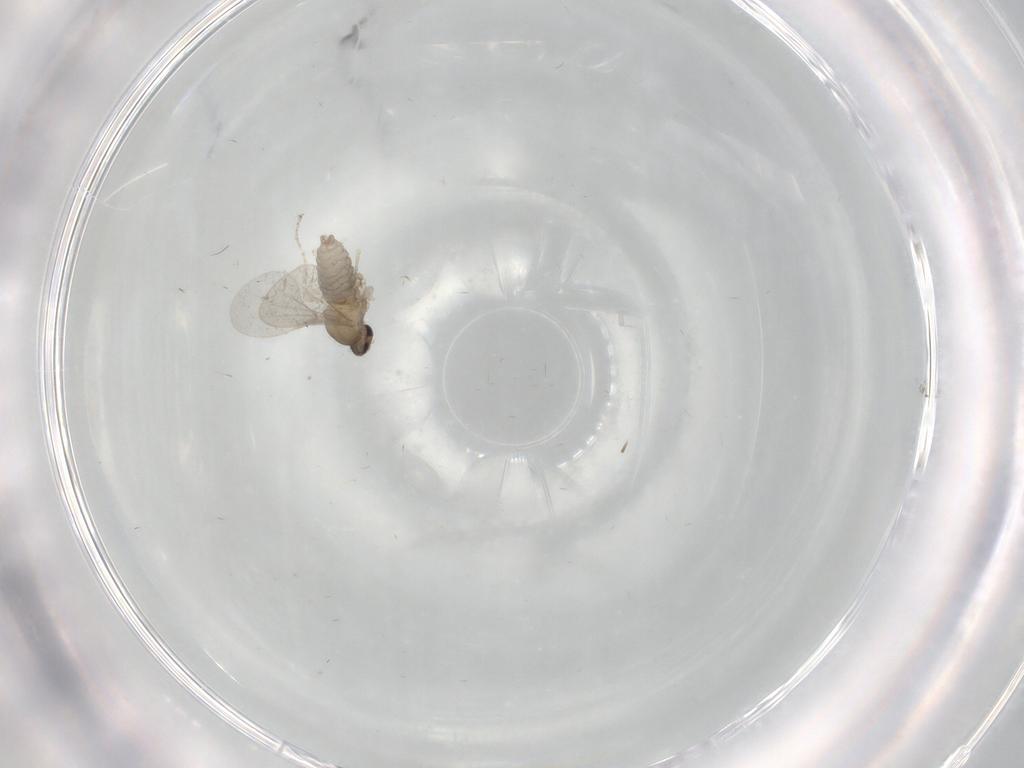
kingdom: Animalia
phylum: Arthropoda
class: Insecta
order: Diptera
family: Cecidomyiidae
